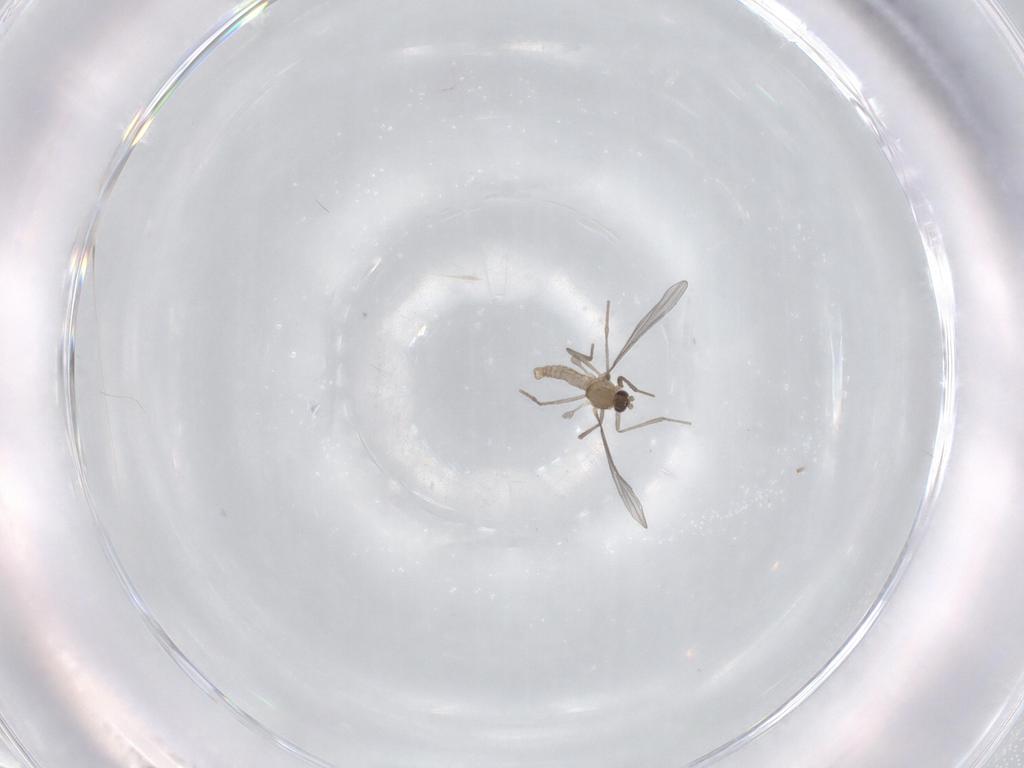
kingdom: Animalia
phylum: Arthropoda
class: Insecta
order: Diptera
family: Cecidomyiidae
